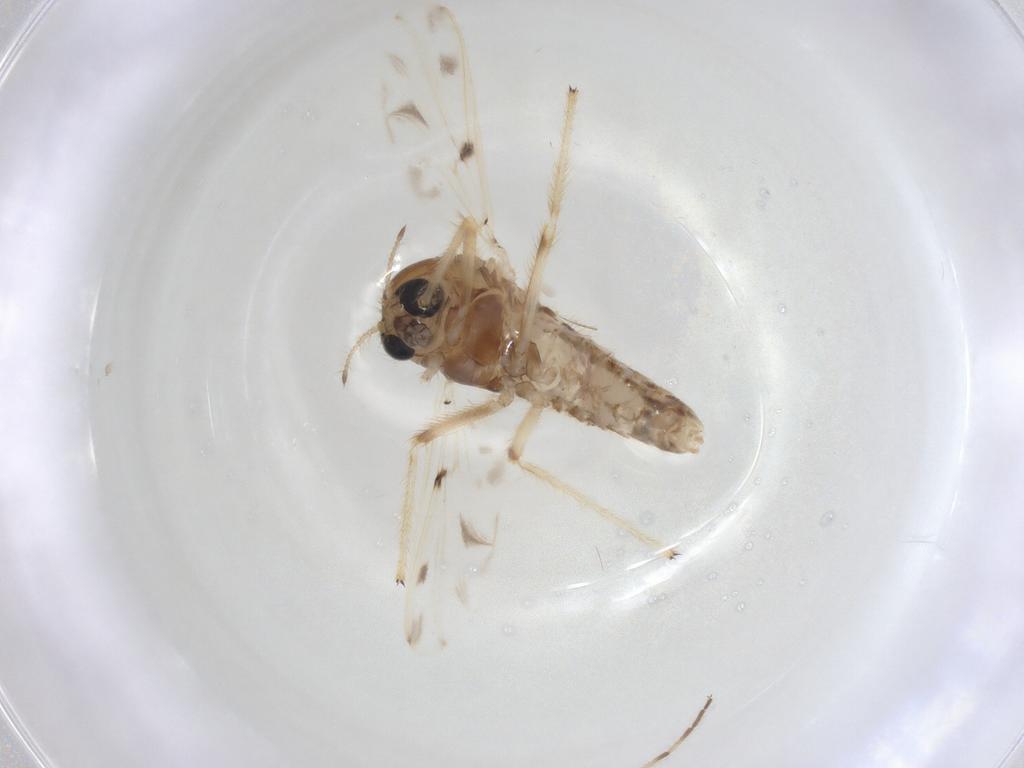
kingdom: Animalia
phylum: Arthropoda
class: Insecta
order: Diptera
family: Chironomidae
